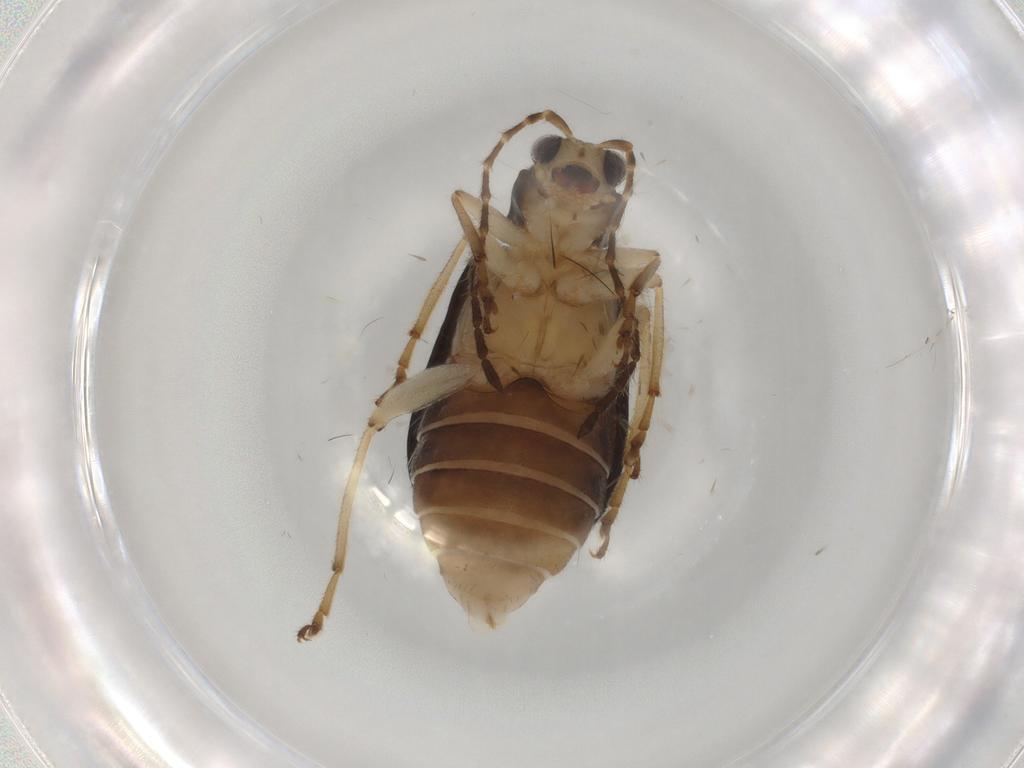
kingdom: Animalia
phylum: Arthropoda
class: Insecta
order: Coleoptera
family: Chrysomelidae
